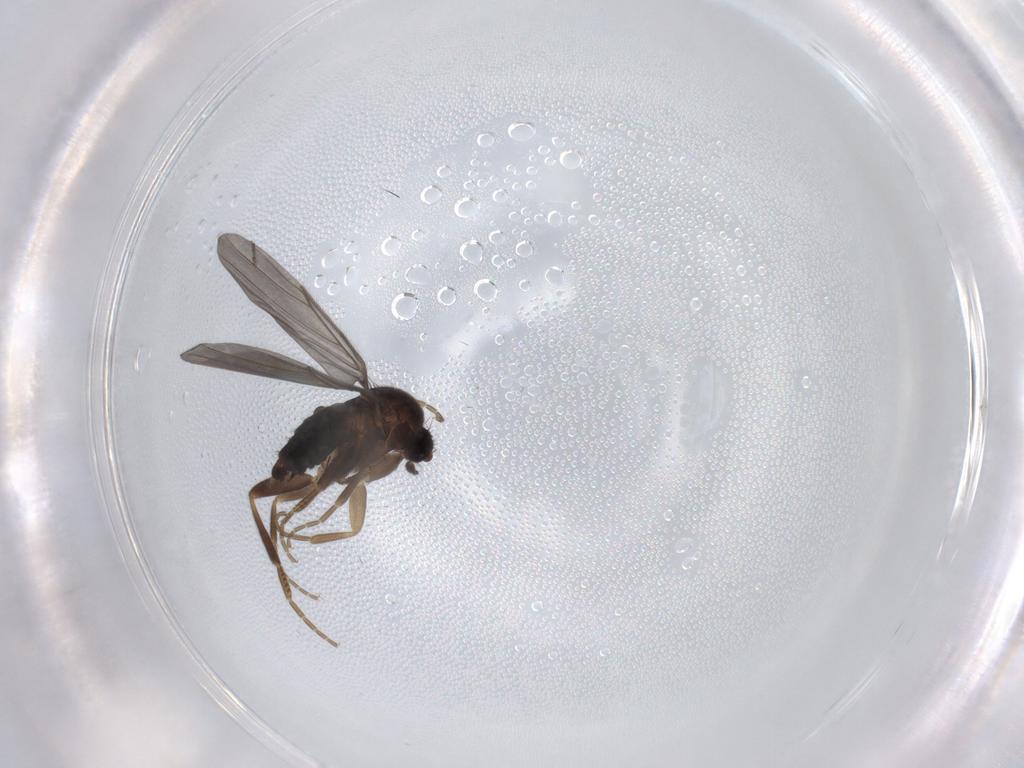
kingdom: Animalia
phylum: Arthropoda
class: Insecta
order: Diptera
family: Ceratopogonidae
